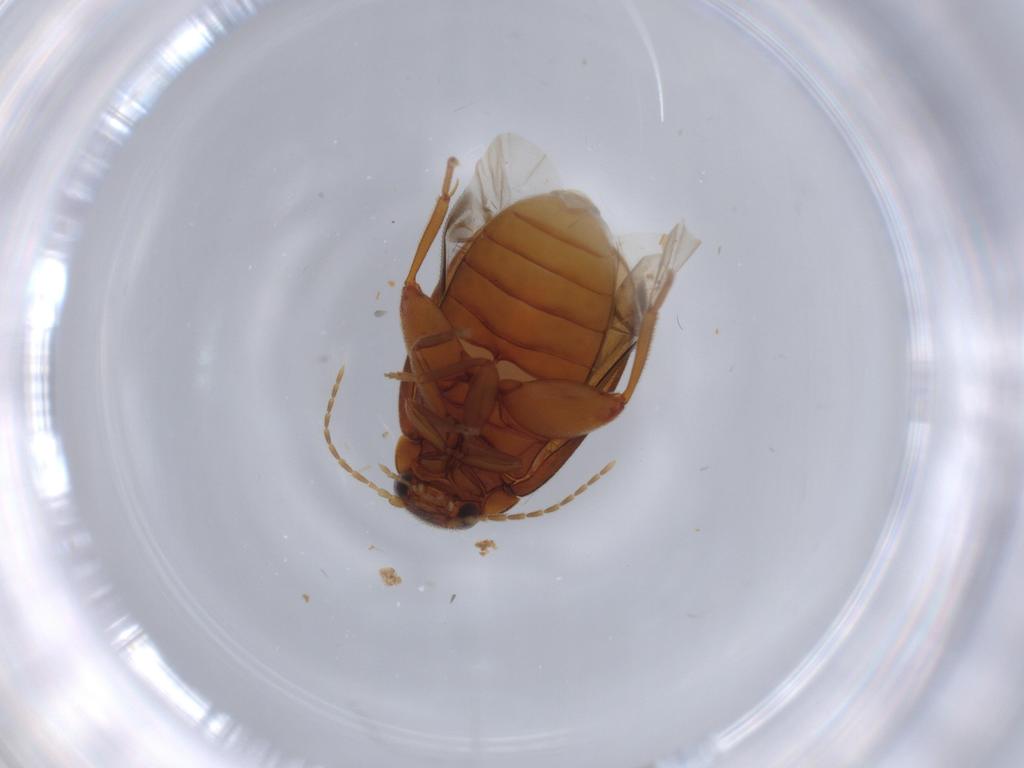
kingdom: Animalia
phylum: Arthropoda
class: Insecta
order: Coleoptera
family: Scirtidae
